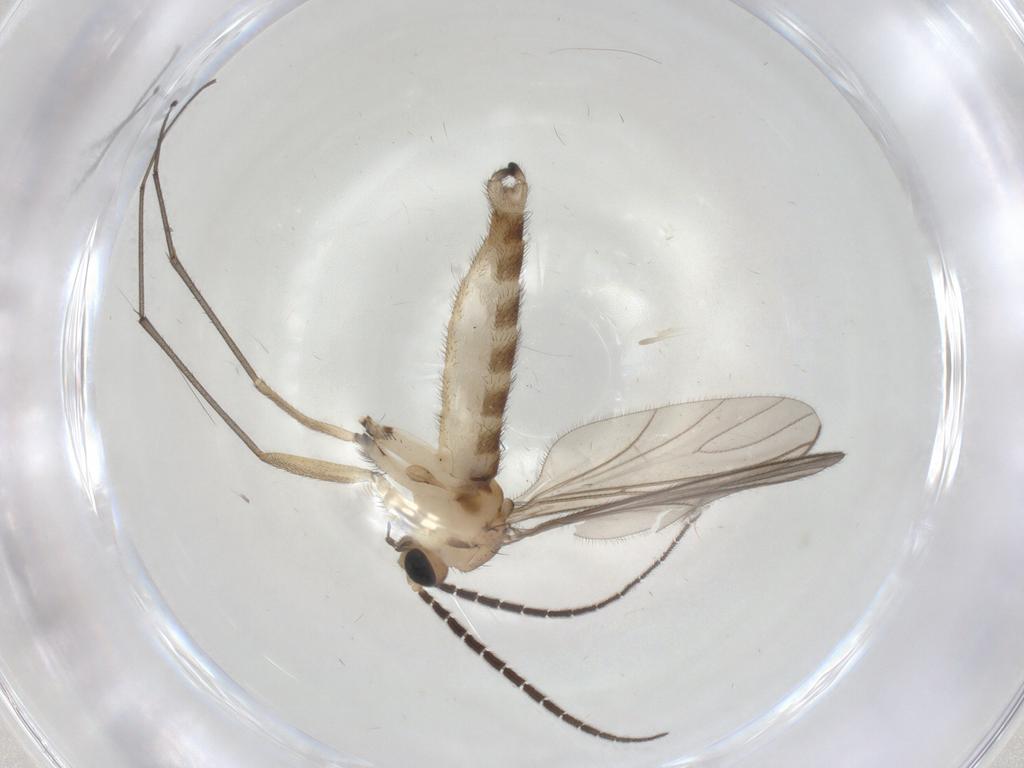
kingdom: Animalia
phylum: Arthropoda
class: Insecta
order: Diptera
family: Sciaridae
